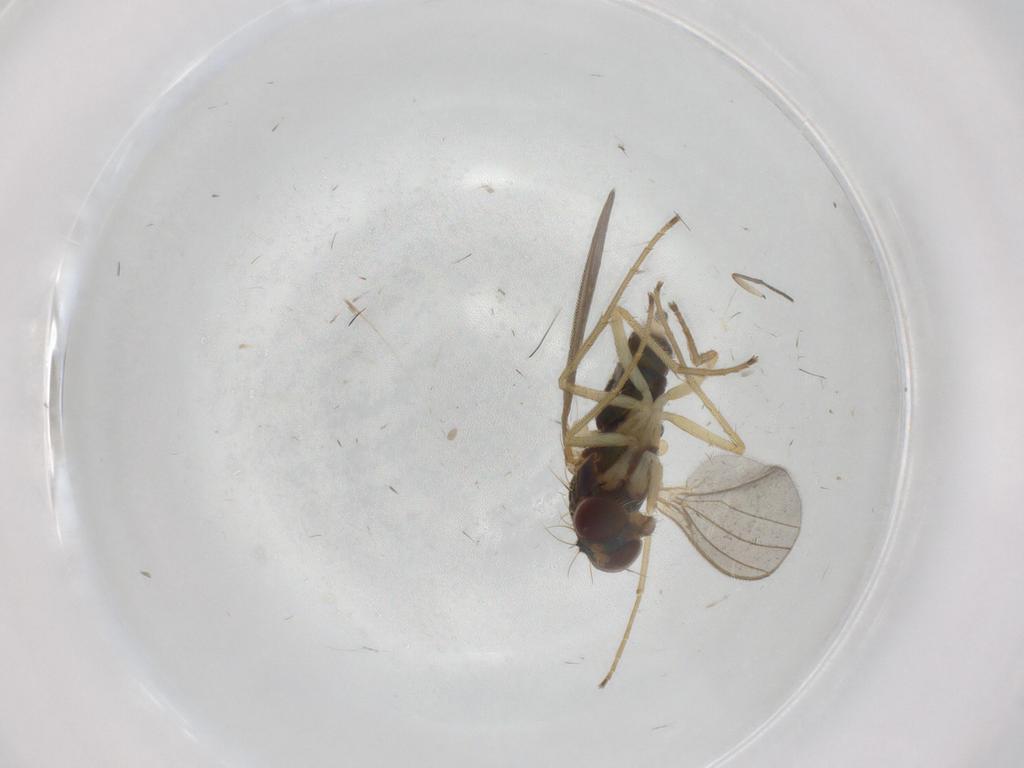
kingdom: Animalia
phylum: Arthropoda
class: Insecta
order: Diptera
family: Dolichopodidae
